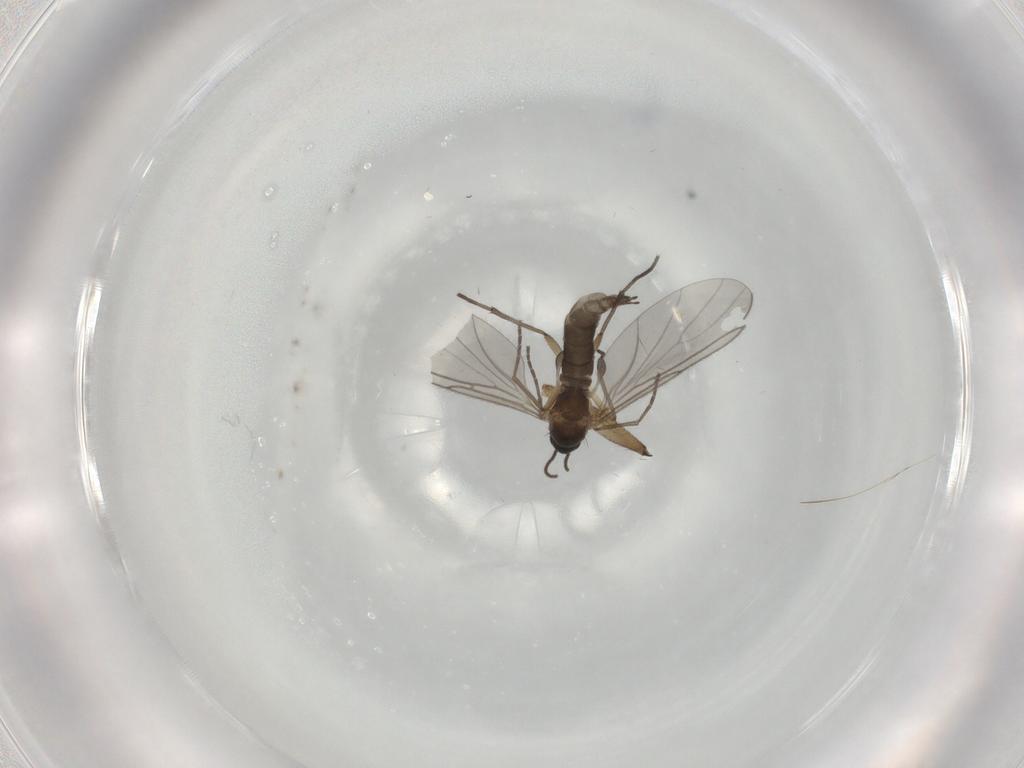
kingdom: Animalia
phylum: Arthropoda
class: Insecta
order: Diptera
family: Sciaridae
